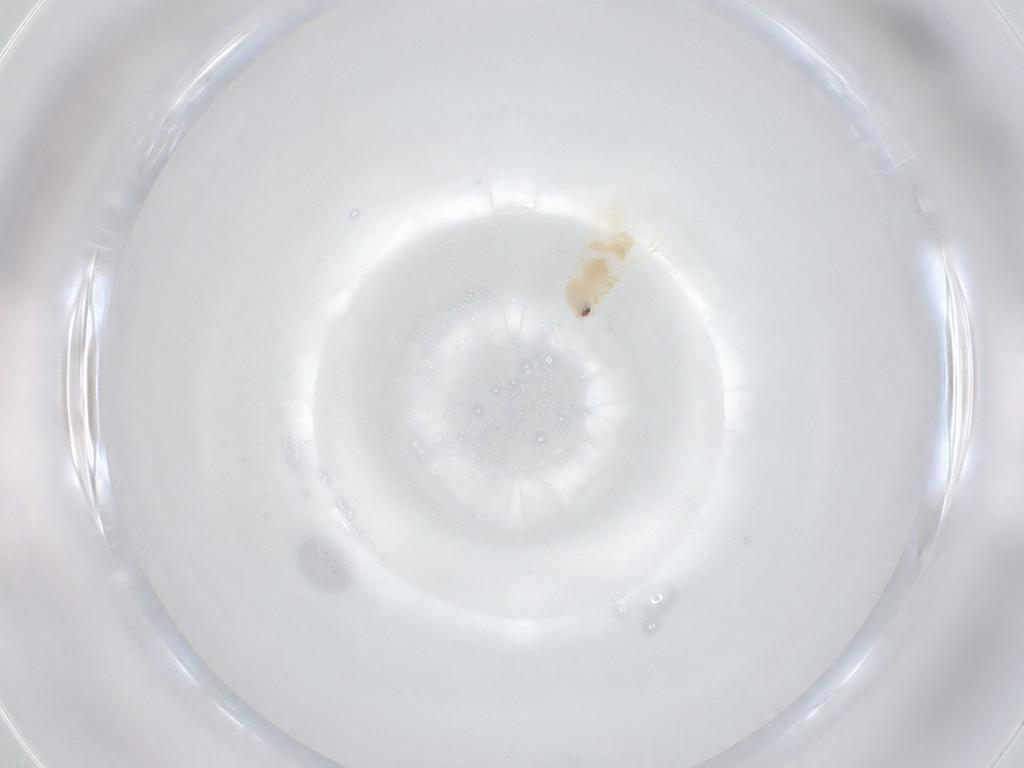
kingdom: Animalia
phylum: Arthropoda
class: Insecta
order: Hemiptera
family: Aleyrodidae
